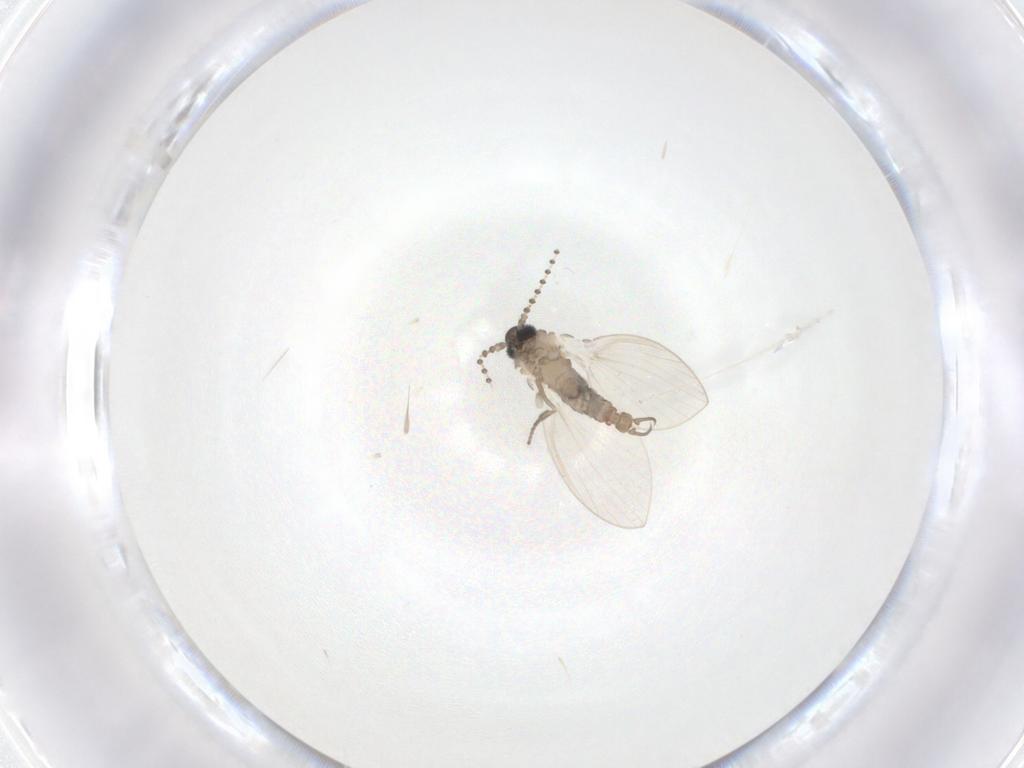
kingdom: Animalia
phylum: Arthropoda
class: Insecta
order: Diptera
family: Psychodidae
